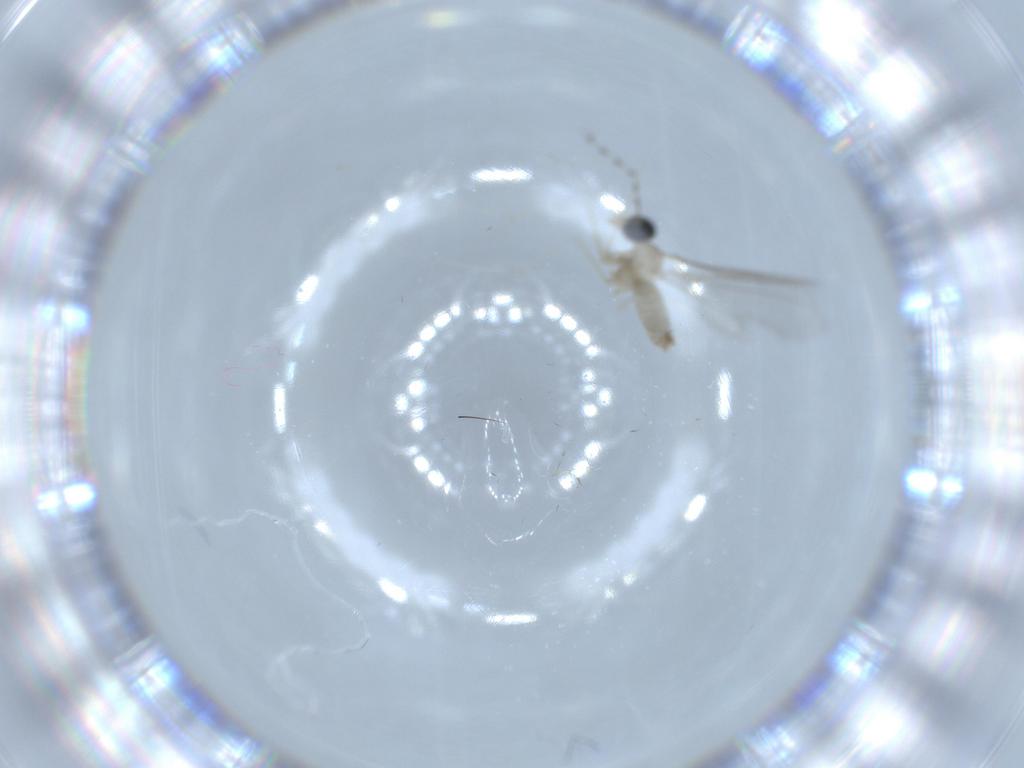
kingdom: Animalia
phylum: Arthropoda
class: Insecta
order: Diptera
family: Cecidomyiidae
